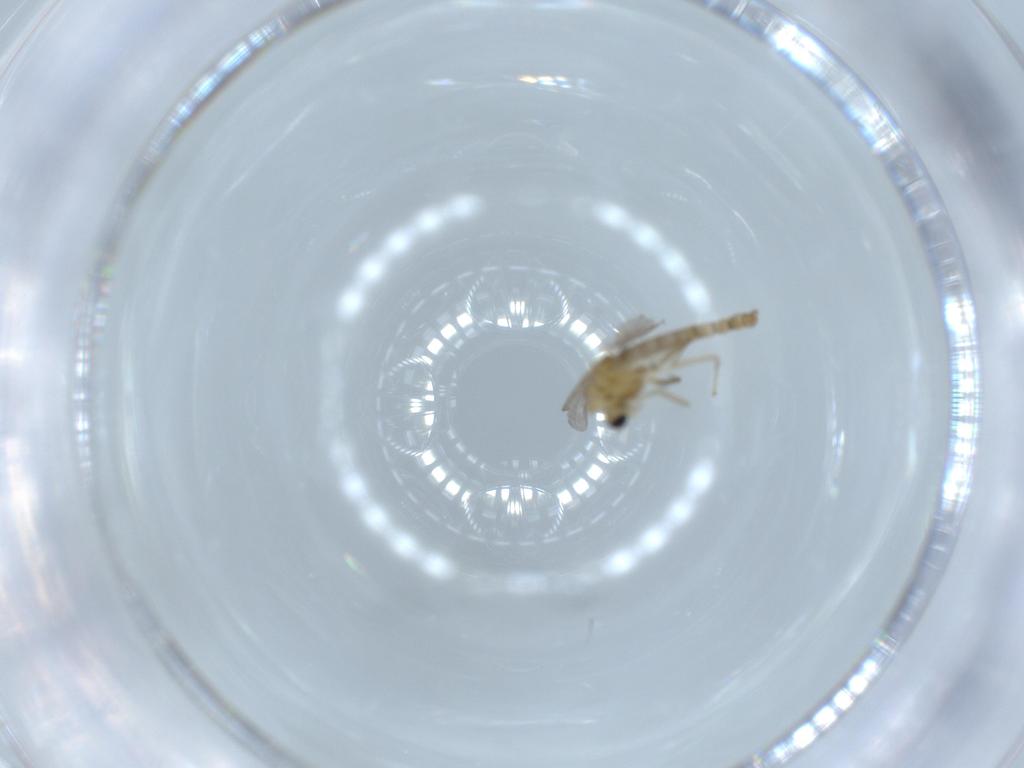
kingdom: Animalia
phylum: Arthropoda
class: Insecta
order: Diptera
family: Chironomidae
